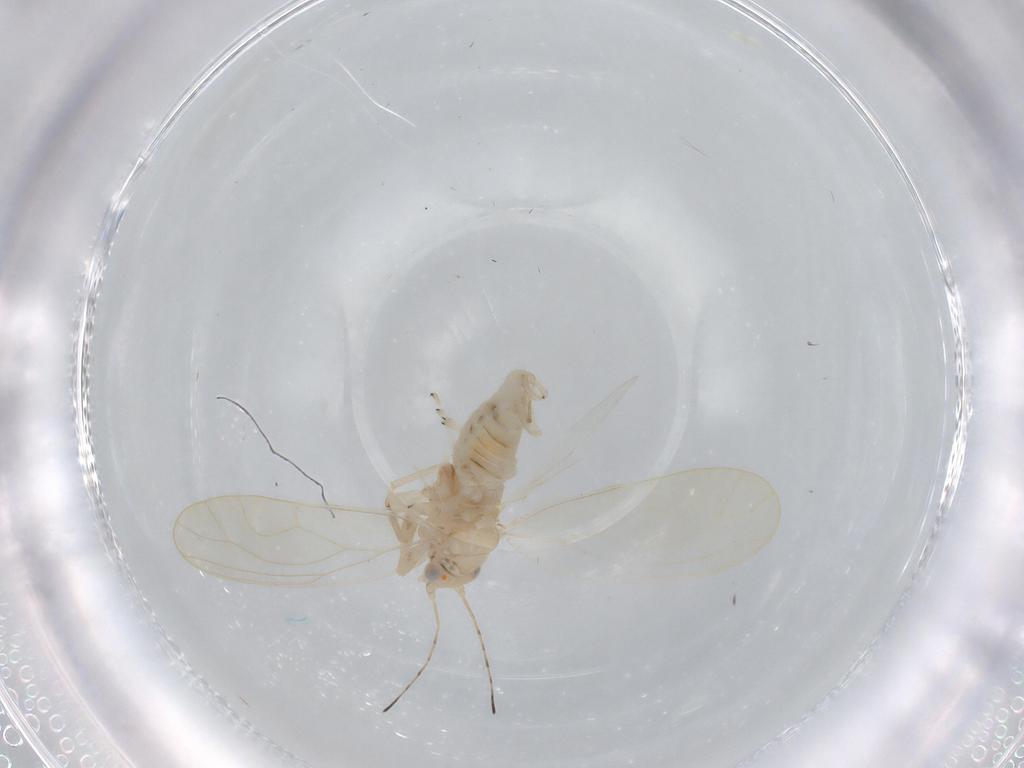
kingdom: Animalia
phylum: Arthropoda
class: Insecta
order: Hemiptera
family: Psyllidae
